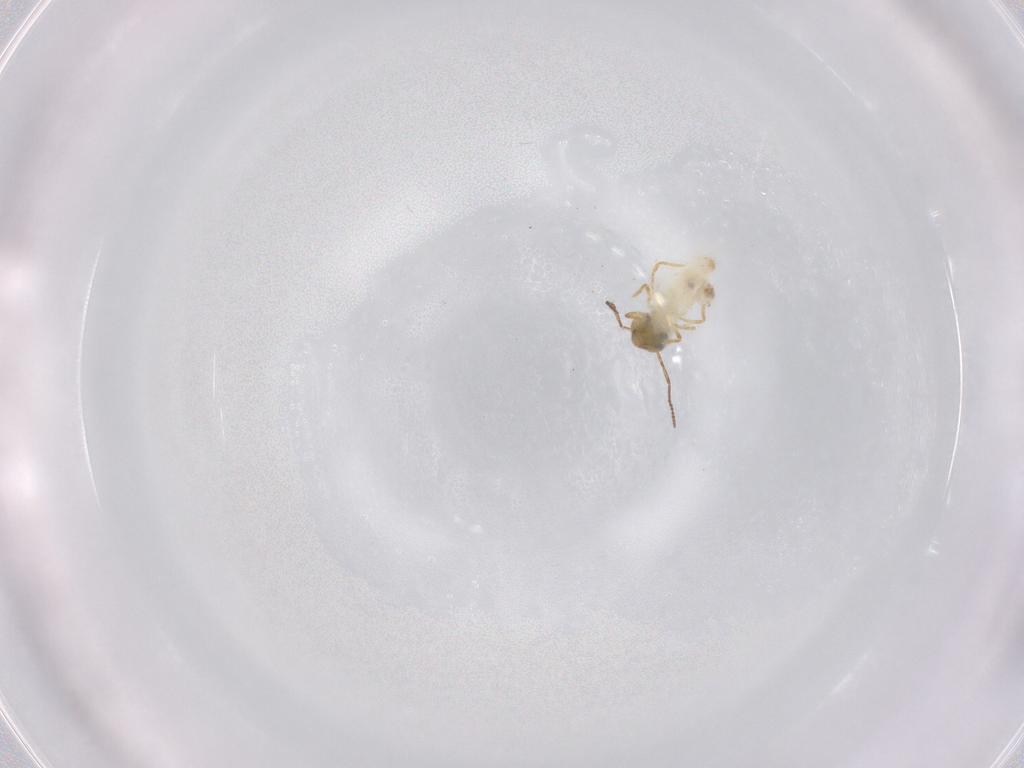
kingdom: Animalia
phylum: Arthropoda
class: Collembola
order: Symphypleona
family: Bourletiellidae
